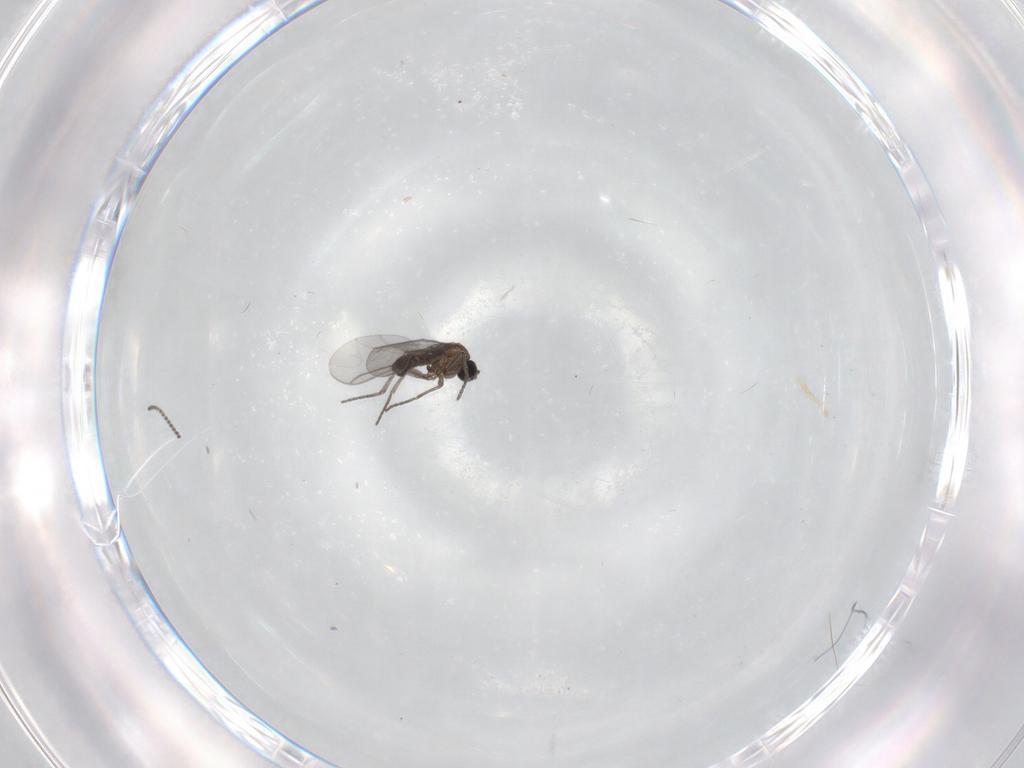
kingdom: Animalia
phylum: Arthropoda
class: Insecta
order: Diptera
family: Sciaridae
